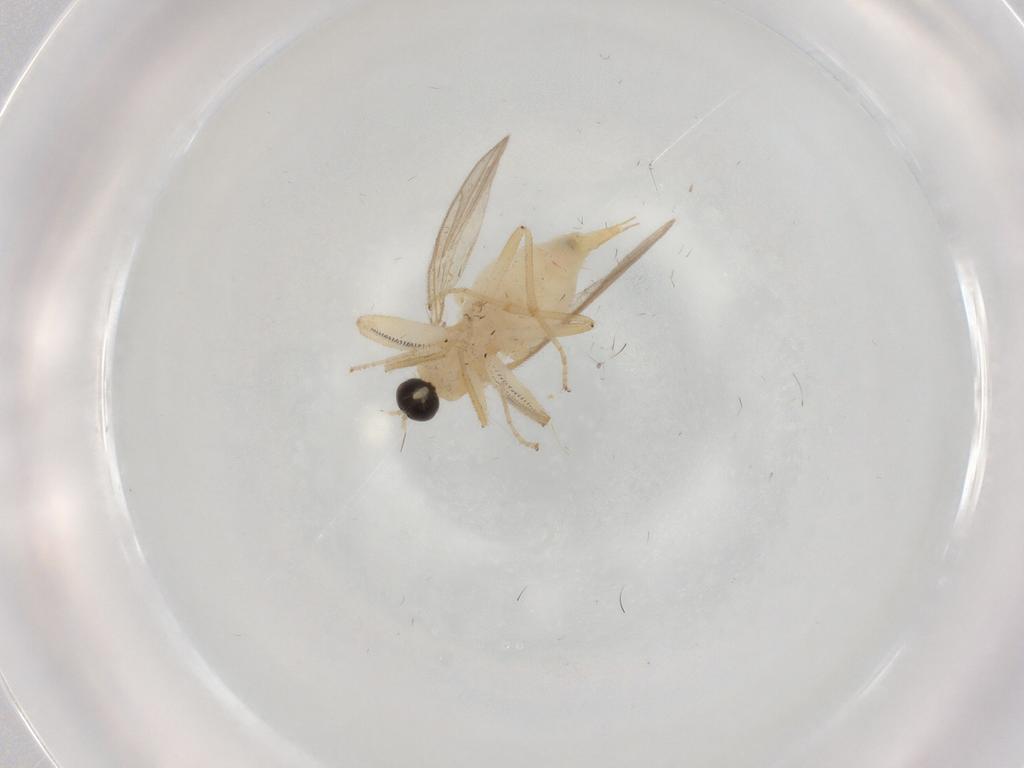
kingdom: Animalia
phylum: Arthropoda
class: Insecta
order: Diptera
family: Ceratopogonidae
